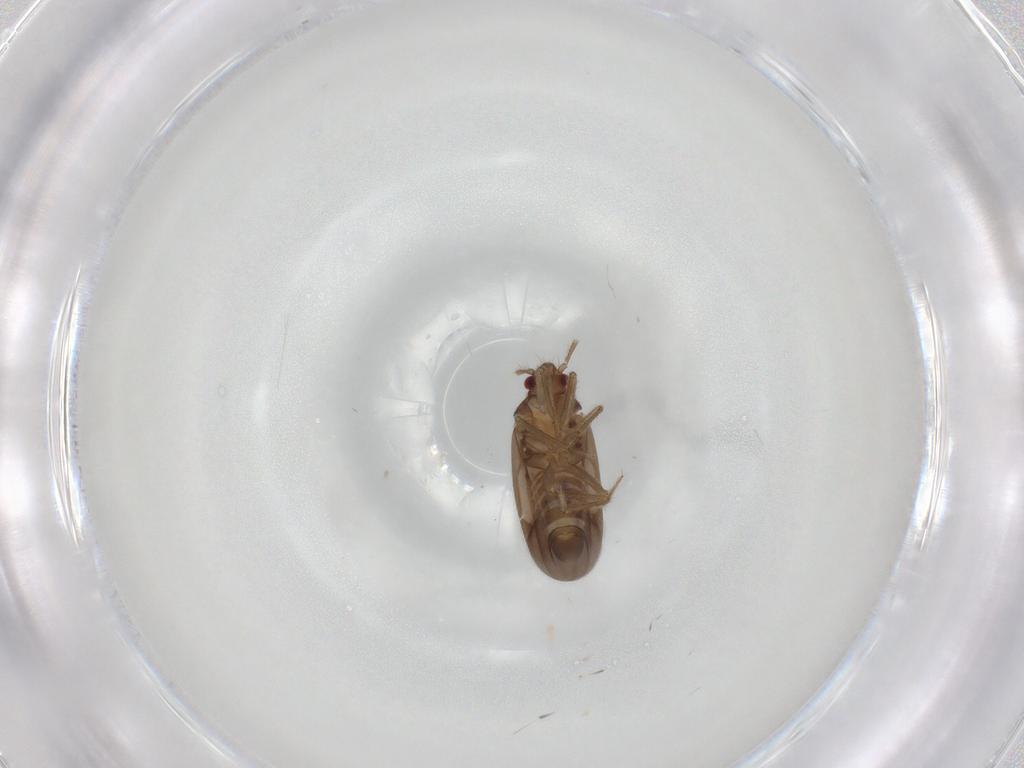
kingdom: Animalia
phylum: Arthropoda
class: Insecta
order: Hemiptera
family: Ceratocombidae
